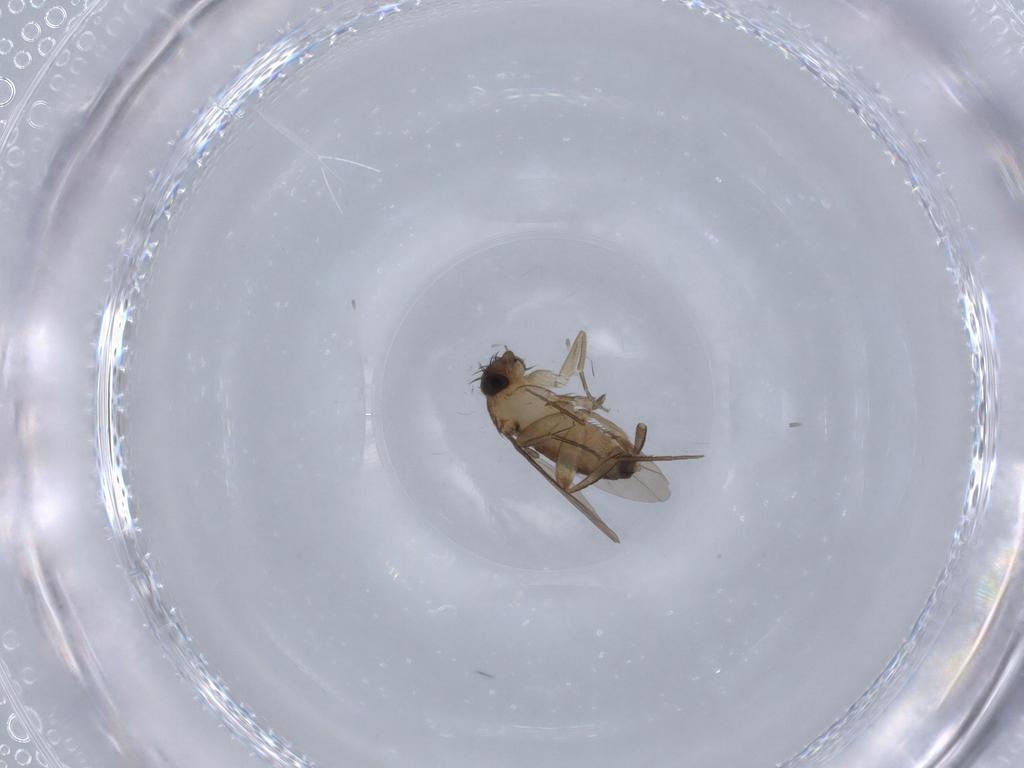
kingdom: Animalia
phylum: Arthropoda
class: Insecta
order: Diptera
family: Phoridae
